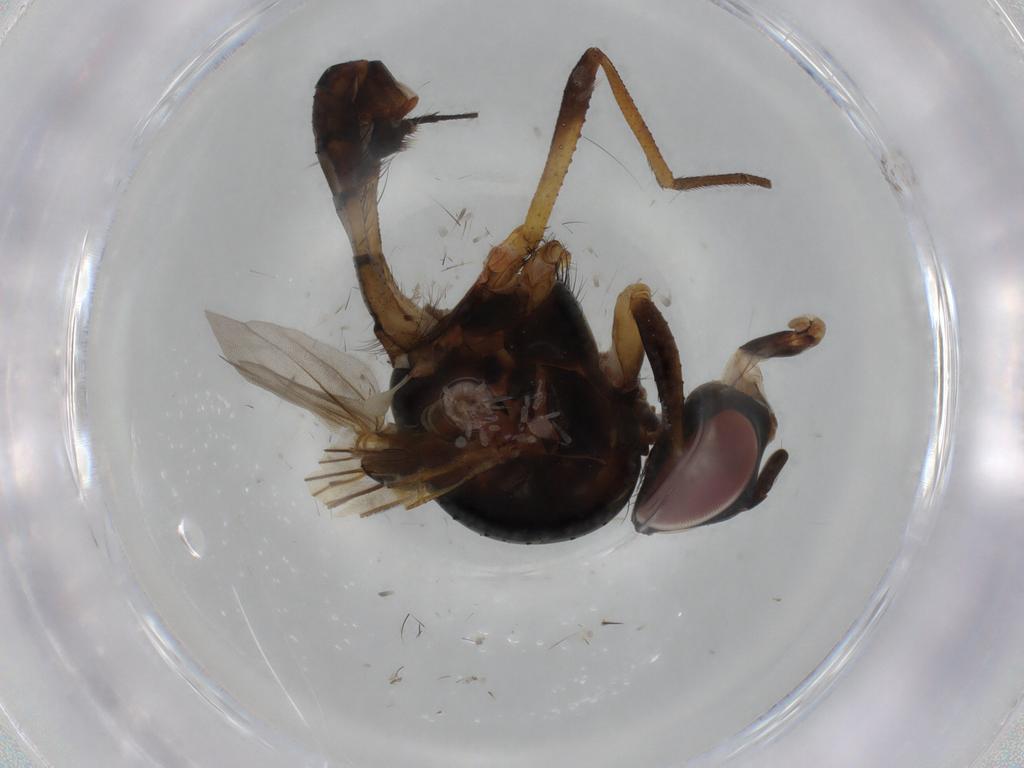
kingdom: Animalia
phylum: Arthropoda
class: Insecta
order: Diptera
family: Anthomyiidae
